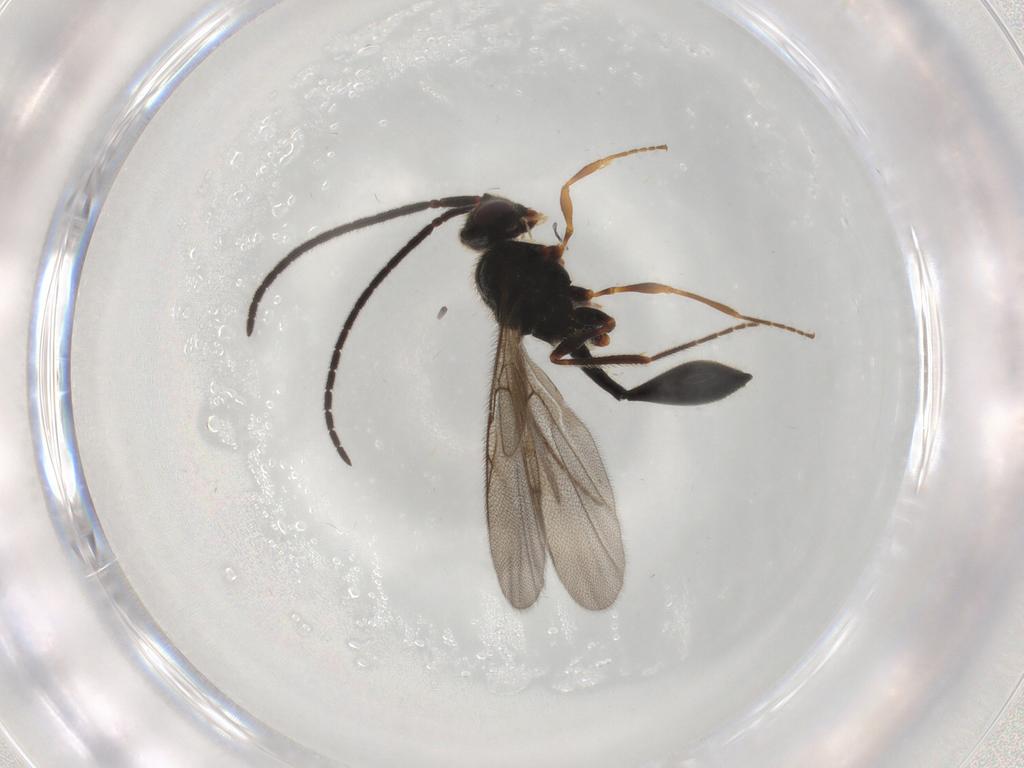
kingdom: Animalia
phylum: Arthropoda
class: Insecta
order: Hymenoptera
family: Diapriidae
